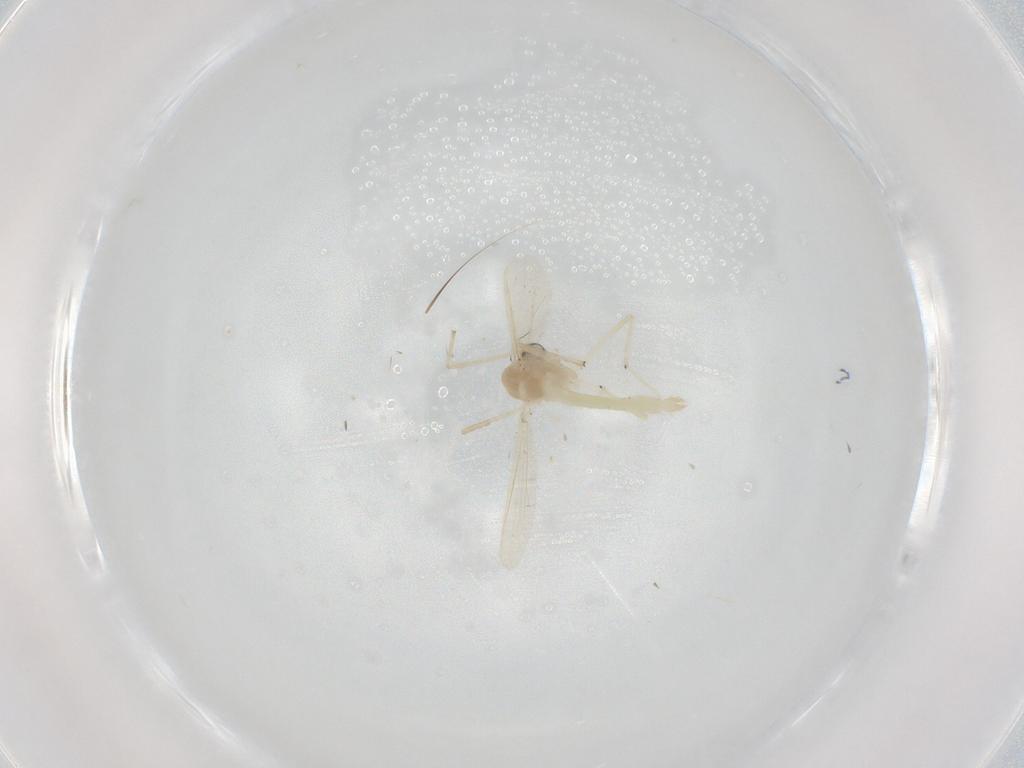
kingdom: Animalia
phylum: Arthropoda
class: Insecta
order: Diptera
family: Chironomidae
